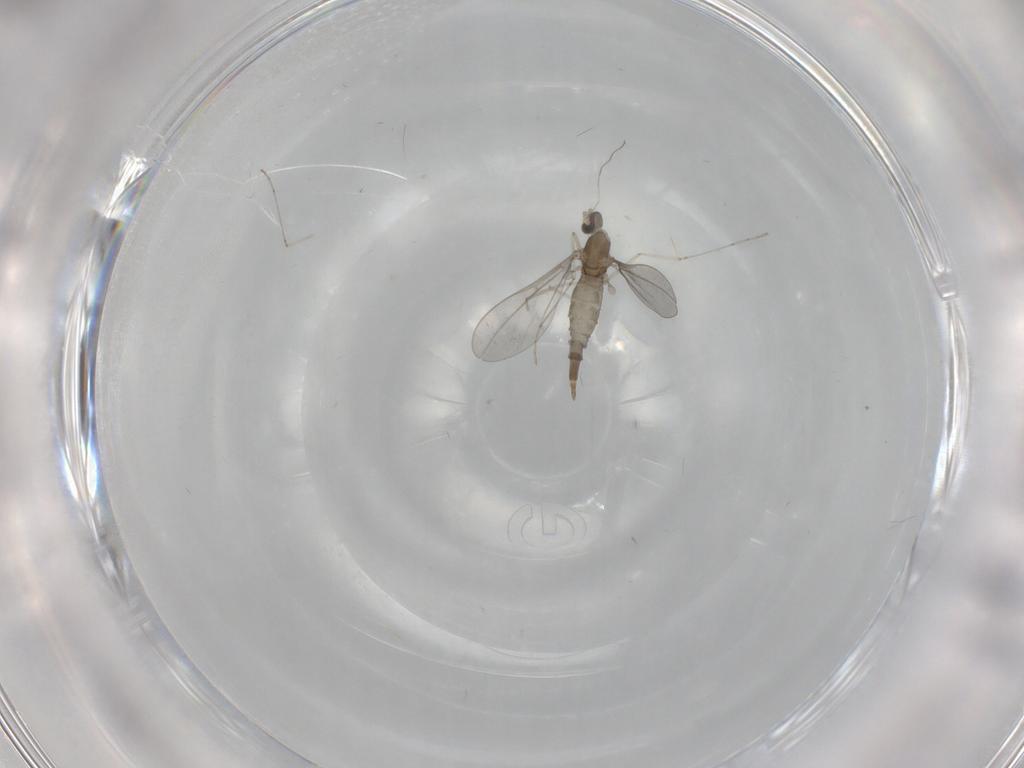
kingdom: Animalia
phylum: Arthropoda
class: Insecta
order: Diptera
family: Cecidomyiidae
